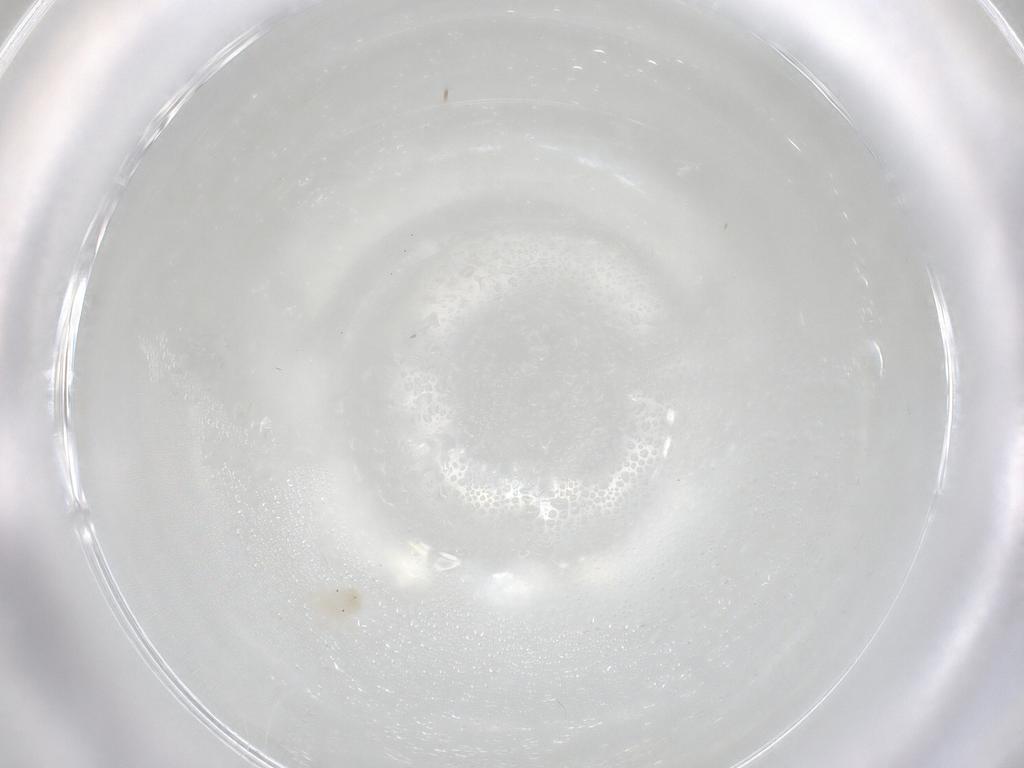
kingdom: Animalia
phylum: Arthropoda
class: Arachnida
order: Trombidiformes
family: Anystidae
